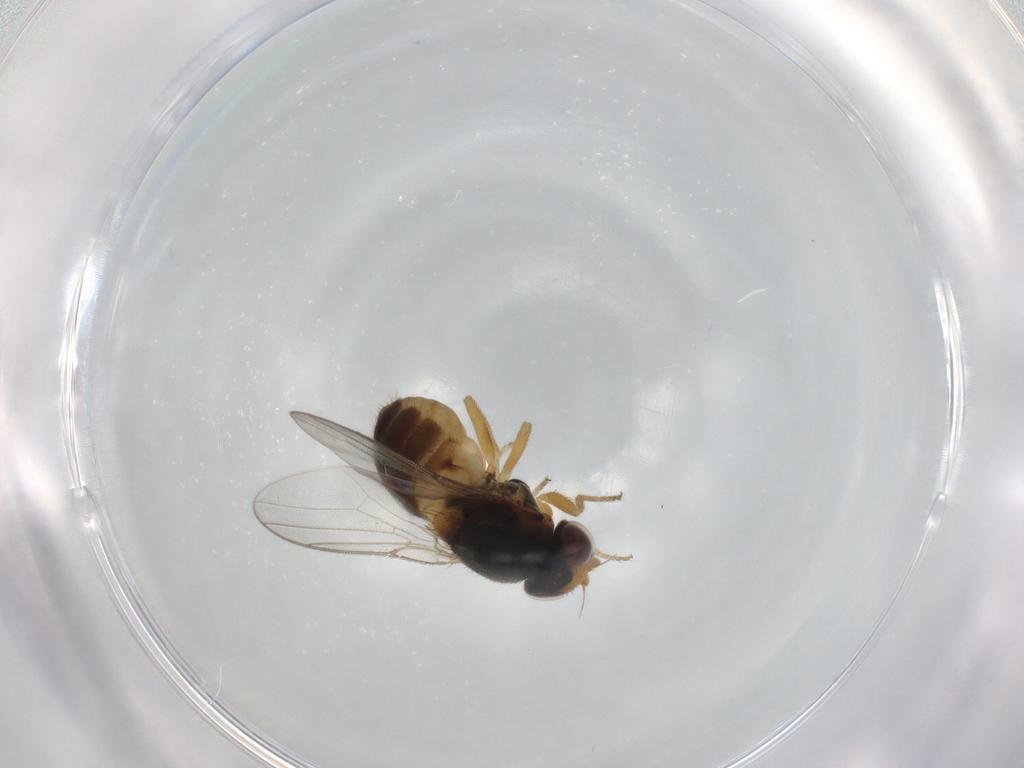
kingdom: Animalia
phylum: Arthropoda
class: Insecta
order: Diptera
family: Chloropidae
